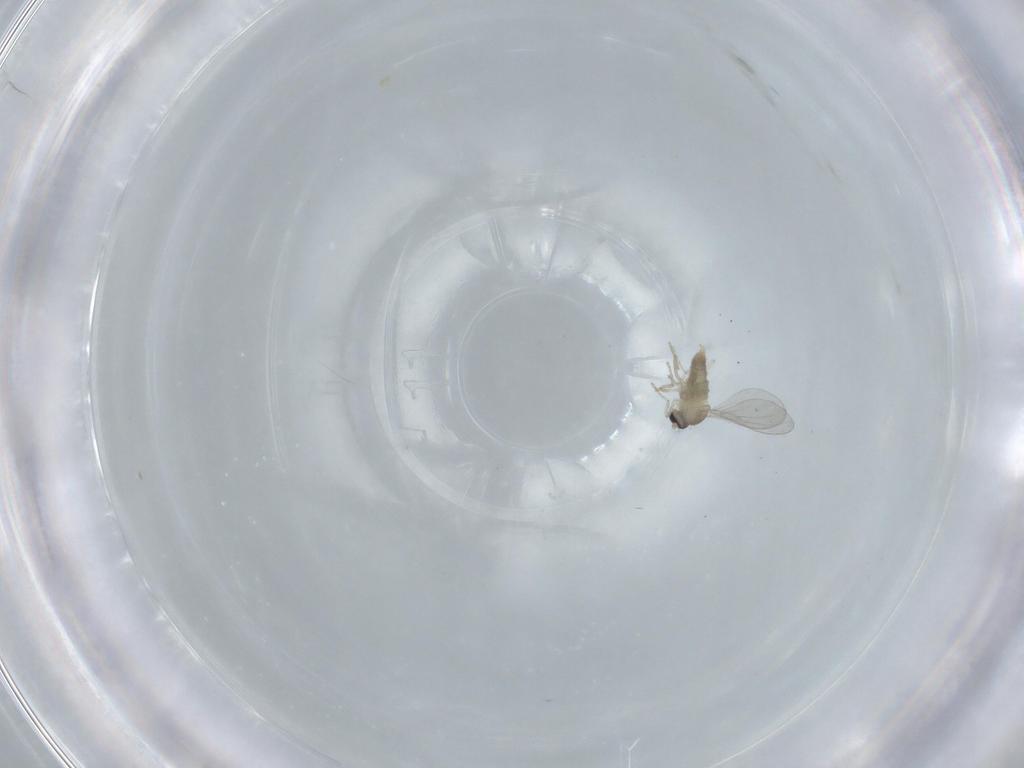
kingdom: Animalia
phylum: Arthropoda
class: Insecta
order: Diptera
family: Cecidomyiidae
